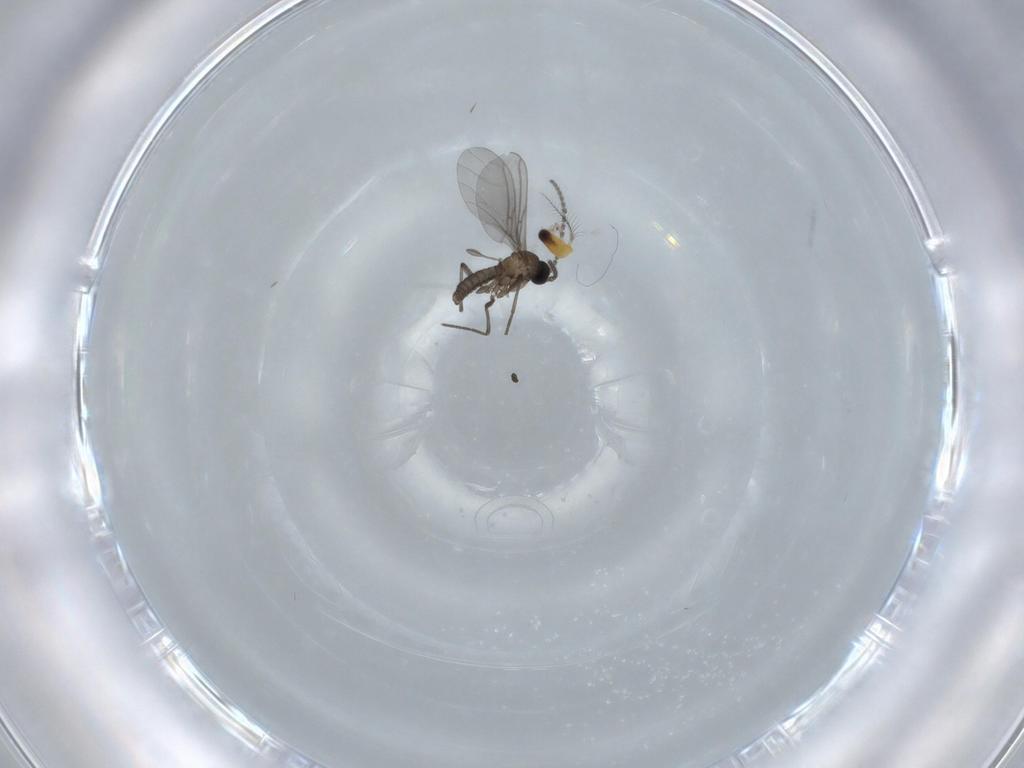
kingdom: Animalia
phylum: Arthropoda
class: Insecta
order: Diptera
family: Sciaridae
